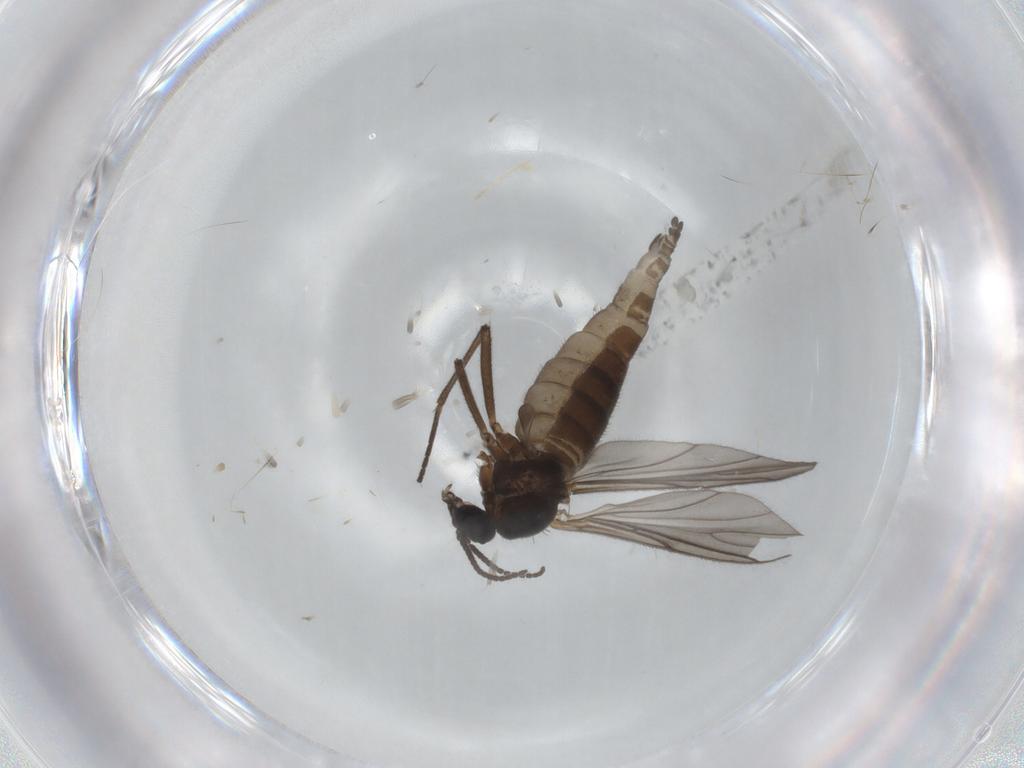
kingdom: Animalia
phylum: Arthropoda
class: Insecta
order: Diptera
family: Sciaridae
